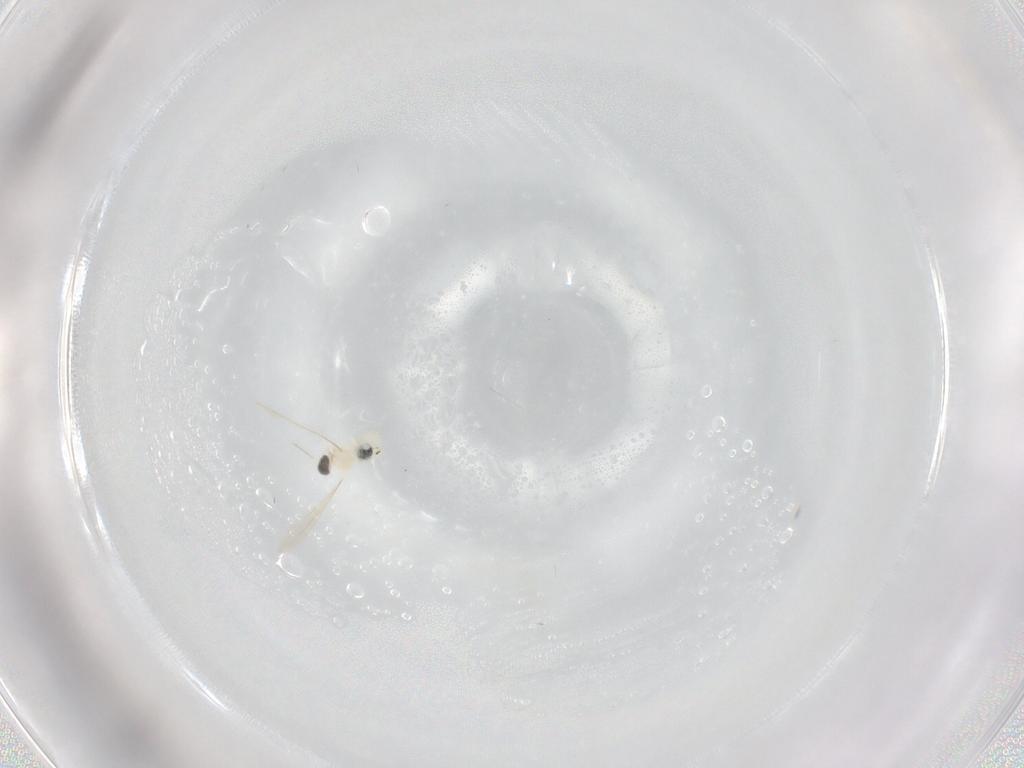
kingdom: Animalia
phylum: Arthropoda
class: Insecta
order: Diptera
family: Cecidomyiidae
